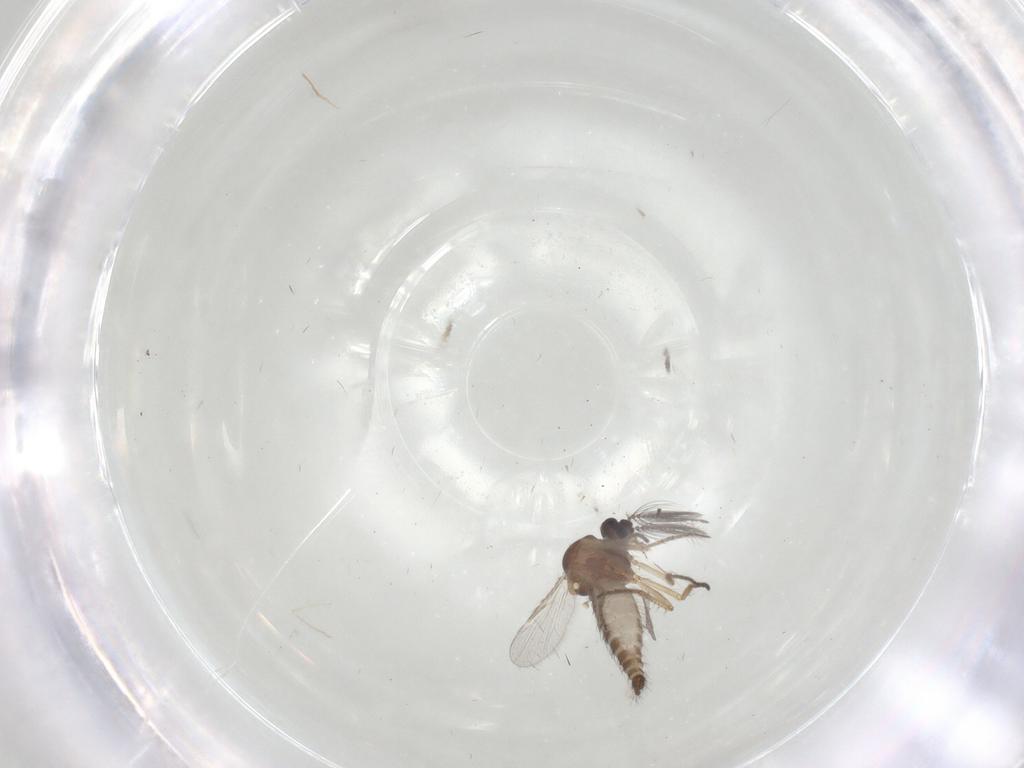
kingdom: Animalia
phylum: Arthropoda
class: Insecta
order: Diptera
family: Ceratopogonidae
